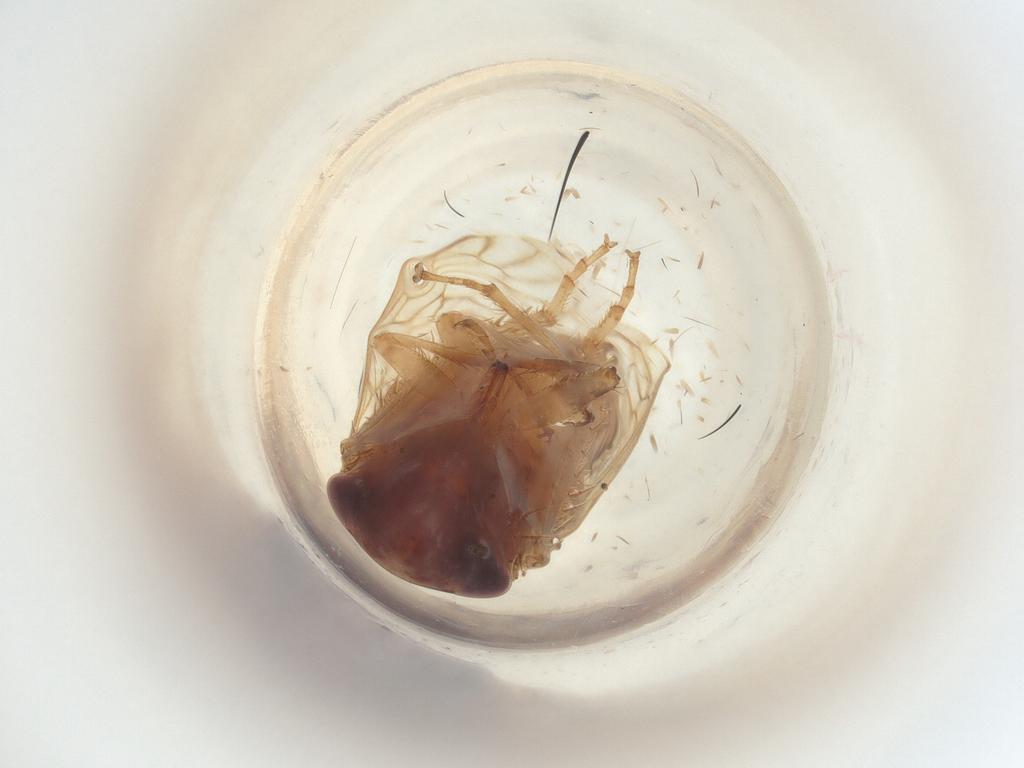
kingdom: Animalia
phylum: Arthropoda
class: Insecta
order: Hemiptera
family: Cicadellidae
